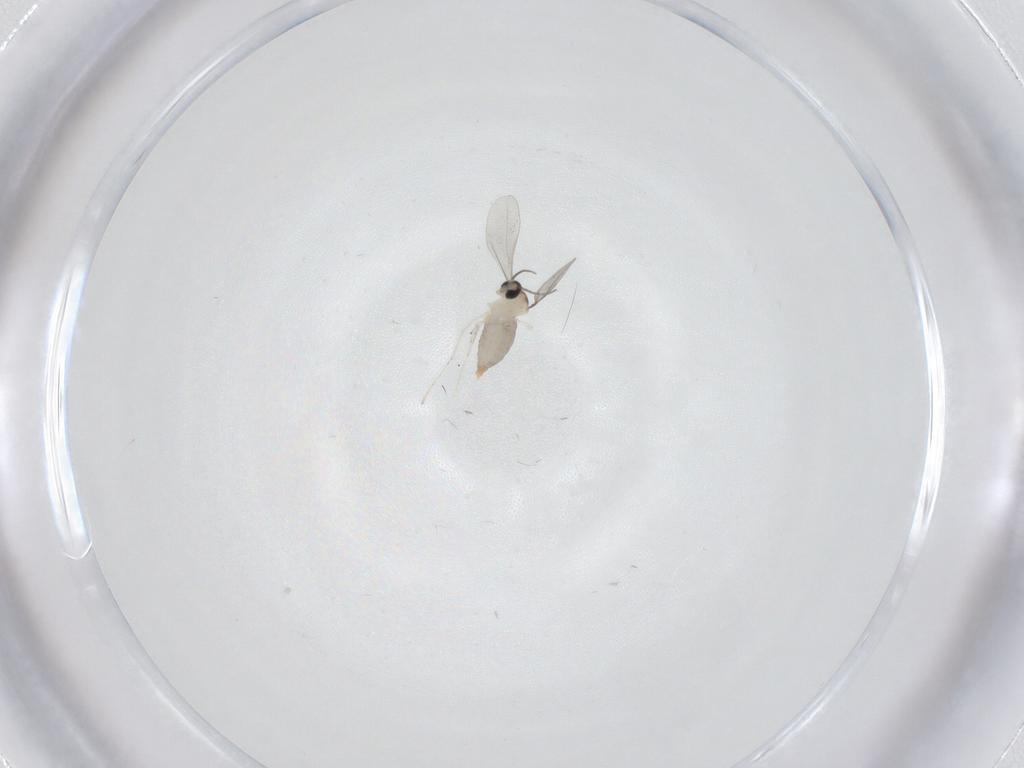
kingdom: Animalia
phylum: Arthropoda
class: Insecta
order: Diptera
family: Cecidomyiidae
